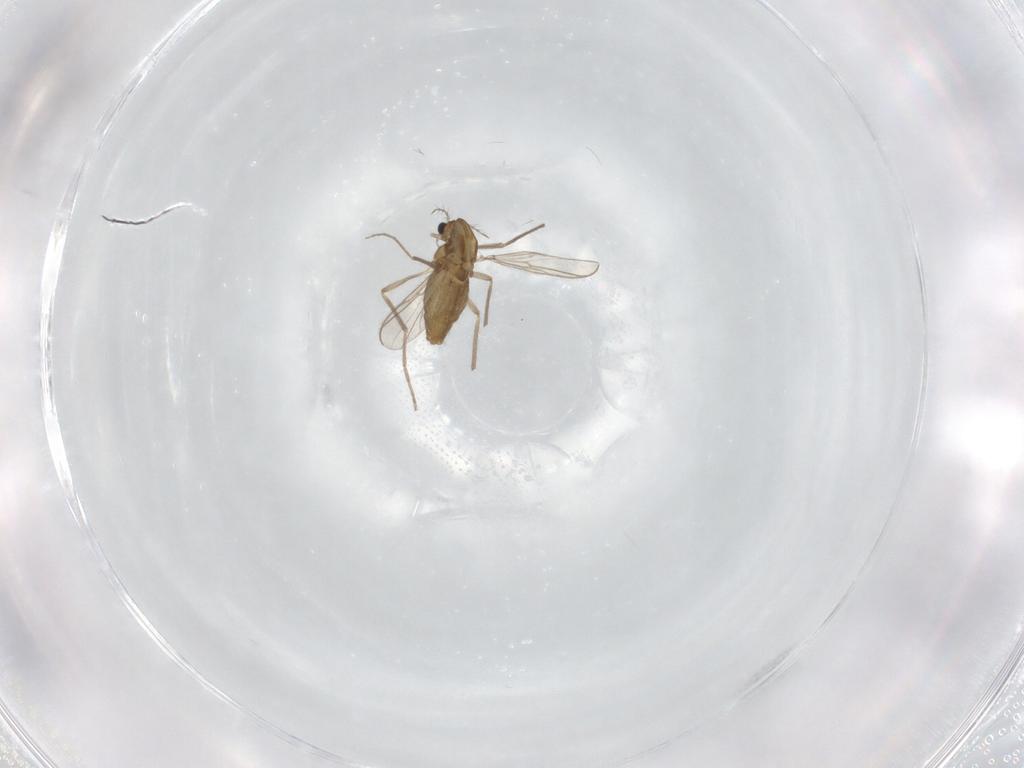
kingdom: Animalia
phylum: Arthropoda
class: Insecta
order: Diptera
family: Chironomidae
